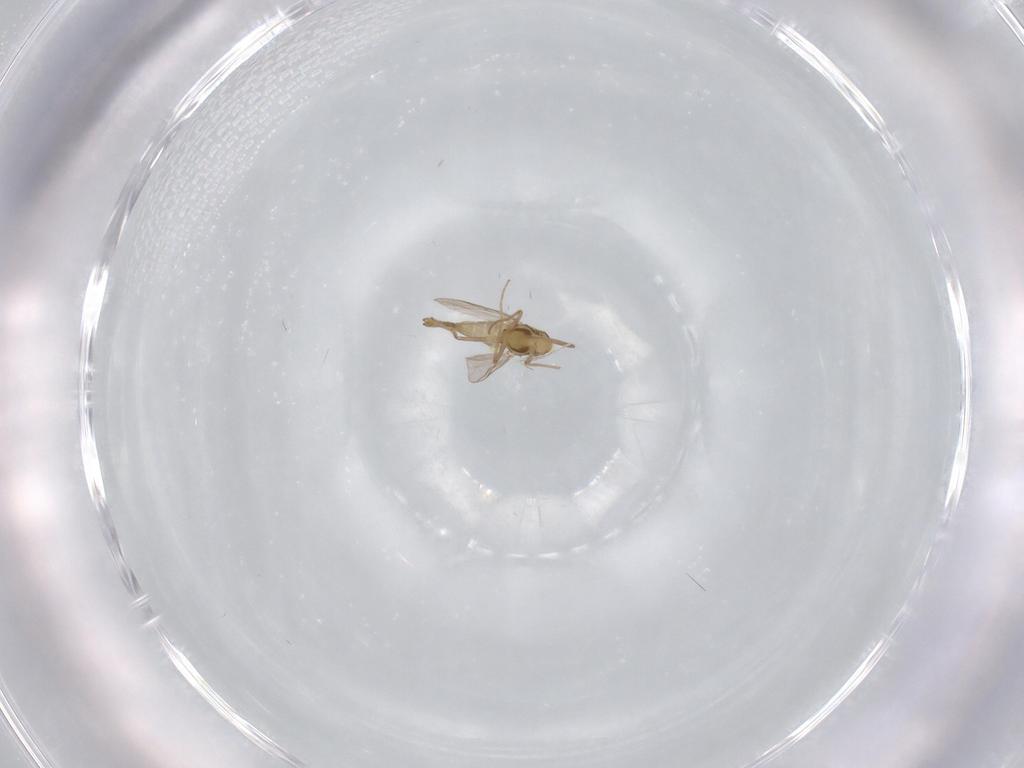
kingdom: Animalia
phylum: Arthropoda
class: Insecta
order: Diptera
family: Chironomidae
